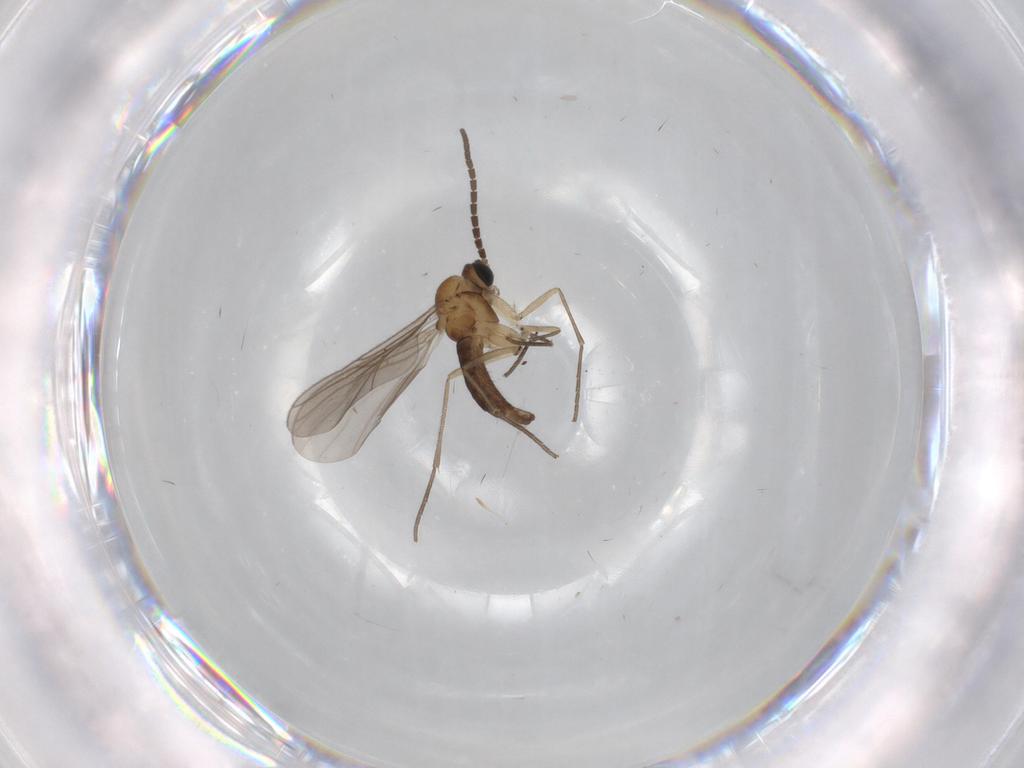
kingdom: Animalia
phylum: Arthropoda
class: Insecta
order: Diptera
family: Sciaridae
